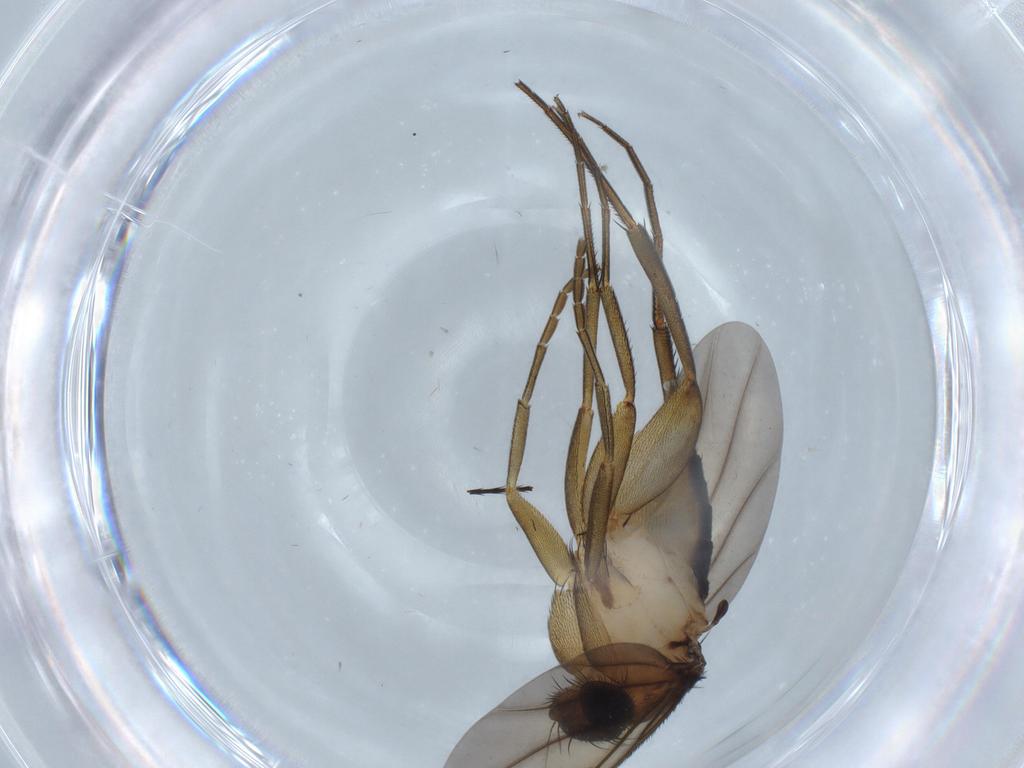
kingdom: Animalia
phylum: Arthropoda
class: Insecta
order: Diptera
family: Phoridae
